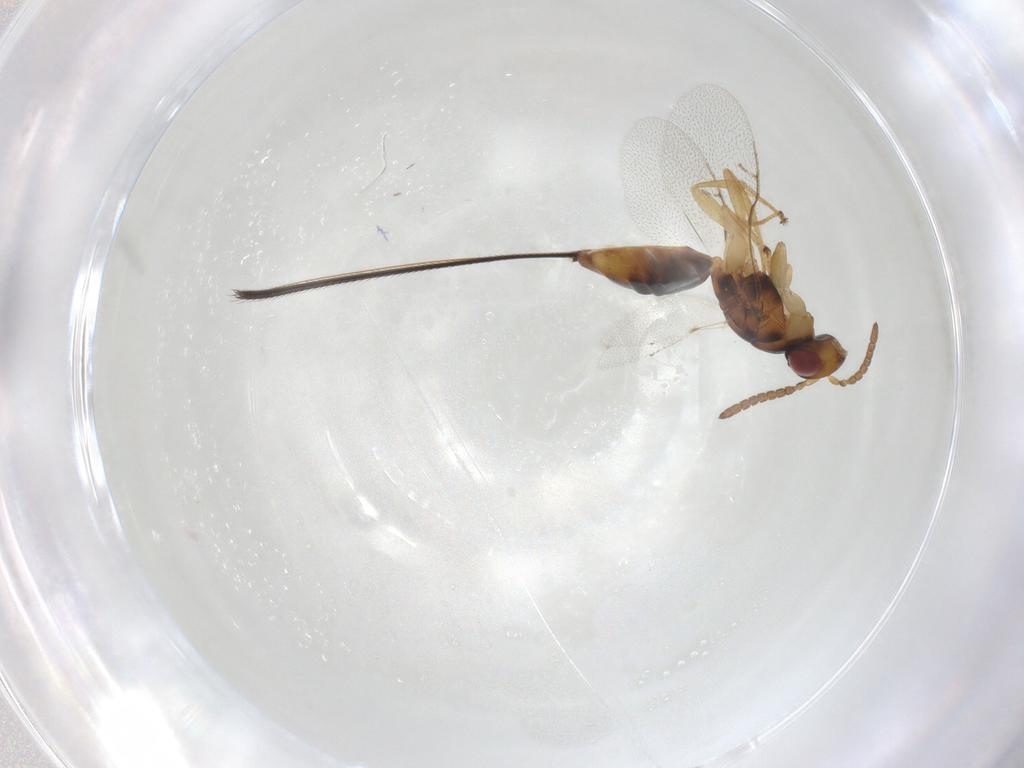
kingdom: Animalia
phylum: Arthropoda
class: Insecta
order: Hymenoptera
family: Pteromalidae
